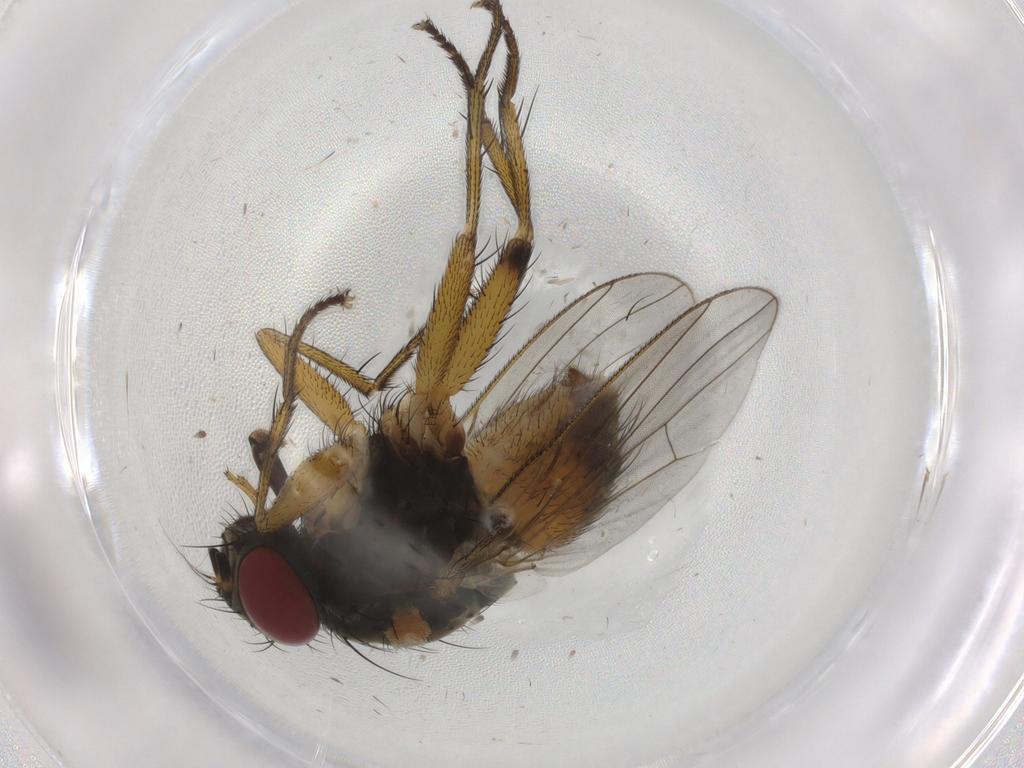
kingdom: Animalia
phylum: Arthropoda
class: Insecta
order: Diptera
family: Muscidae
